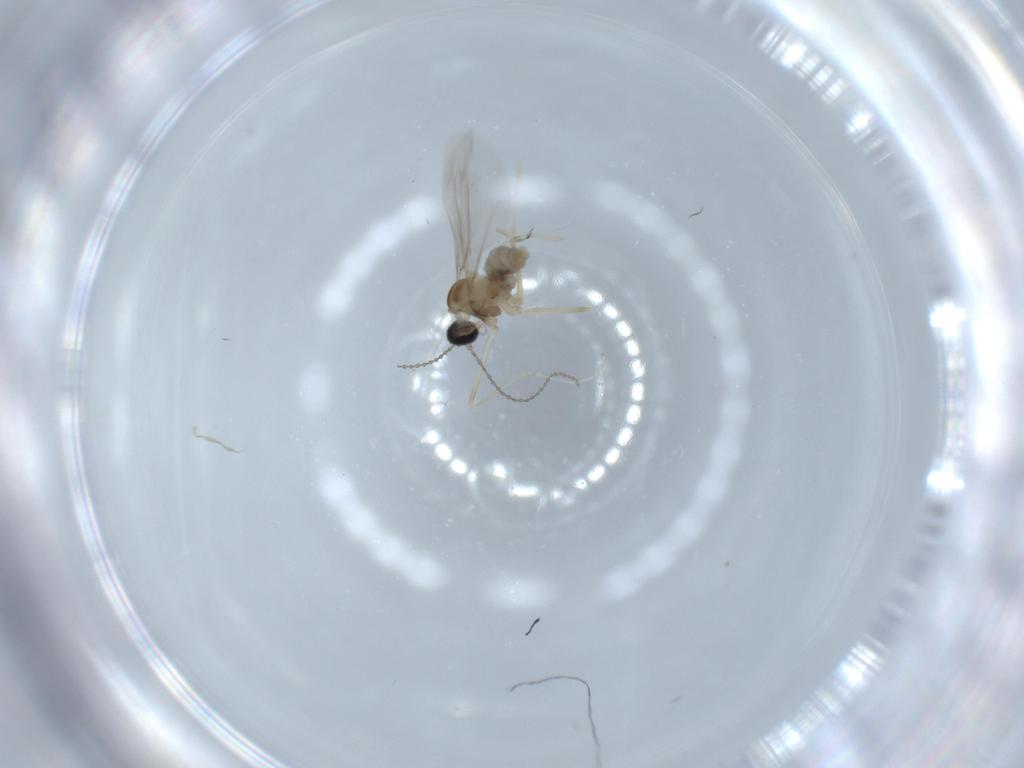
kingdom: Animalia
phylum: Arthropoda
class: Insecta
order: Diptera
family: Cecidomyiidae
